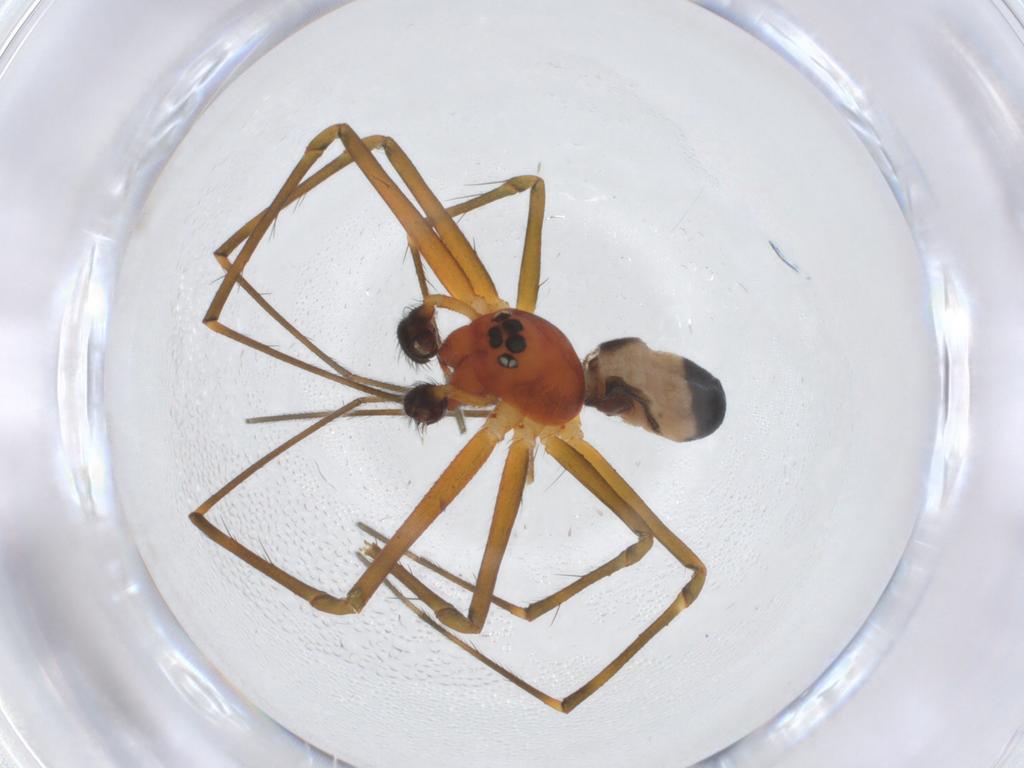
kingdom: Animalia
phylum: Arthropoda
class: Arachnida
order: Araneae
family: Linyphiidae
